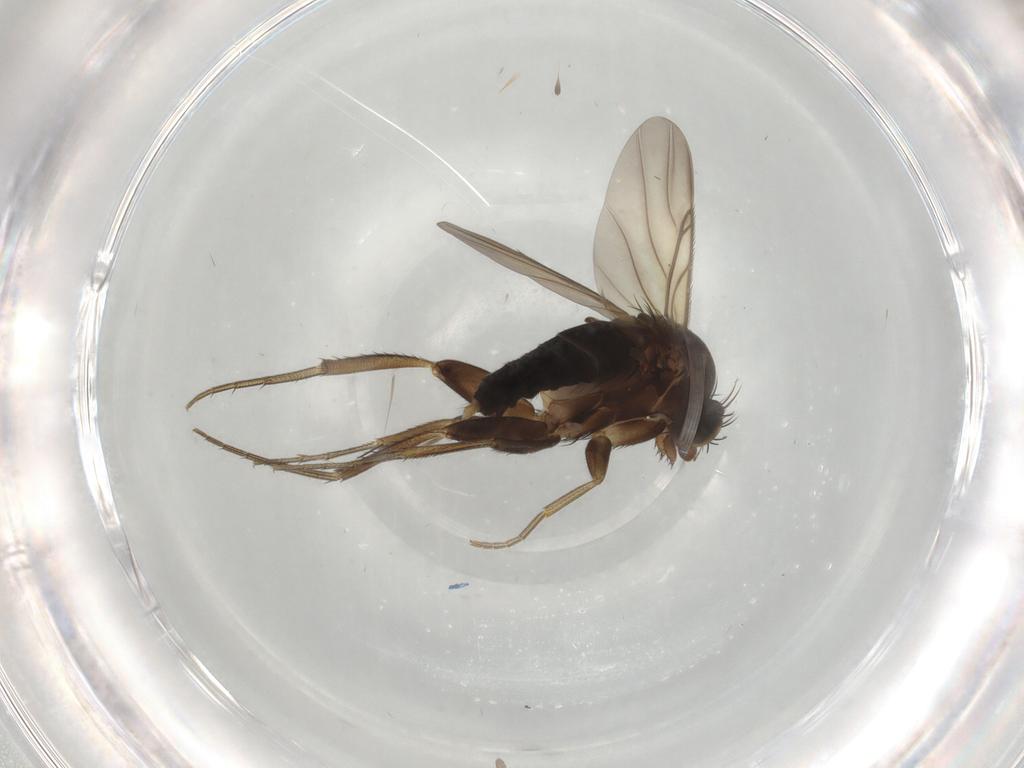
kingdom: Animalia
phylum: Arthropoda
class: Insecta
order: Diptera
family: Phoridae
